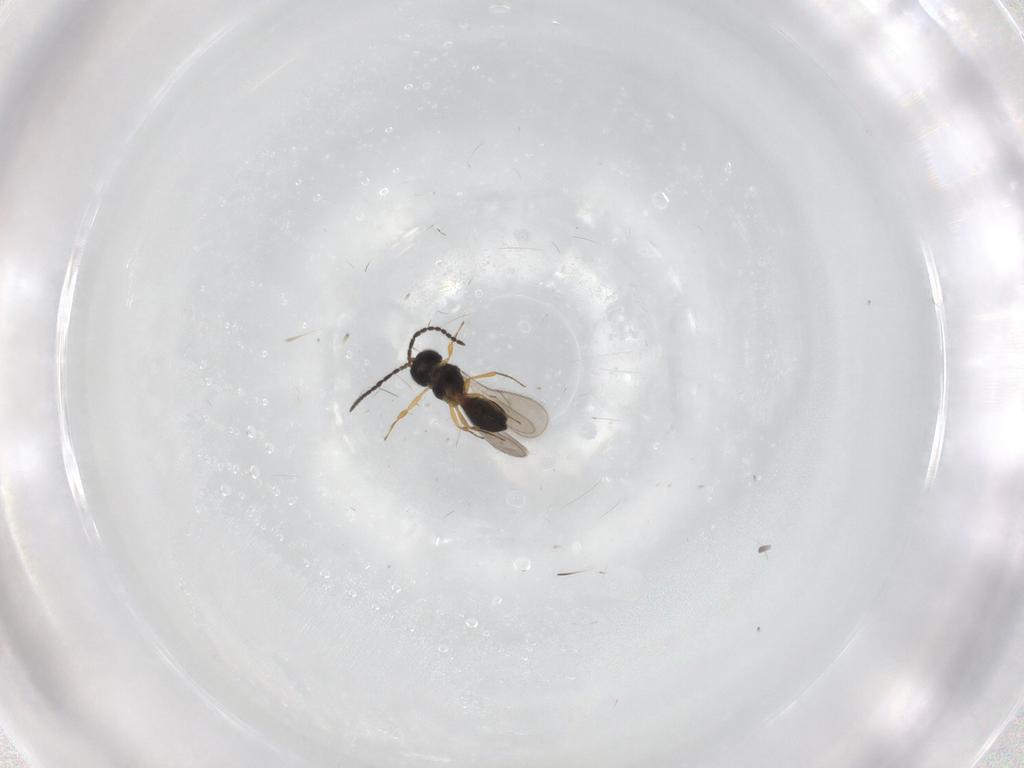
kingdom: Animalia
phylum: Arthropoda
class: Insecta
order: Hymenoptera
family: Scelionidae
